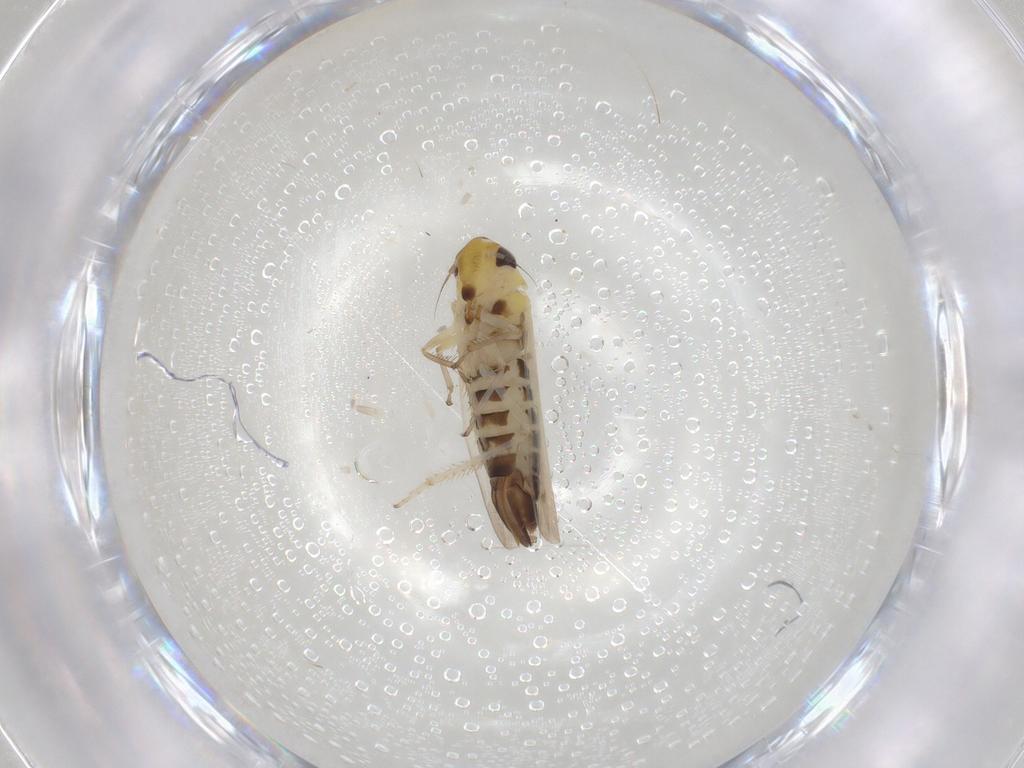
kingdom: Animalia
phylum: Arthropoda
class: Insecta
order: Hemiptera
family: Cicadellidae
